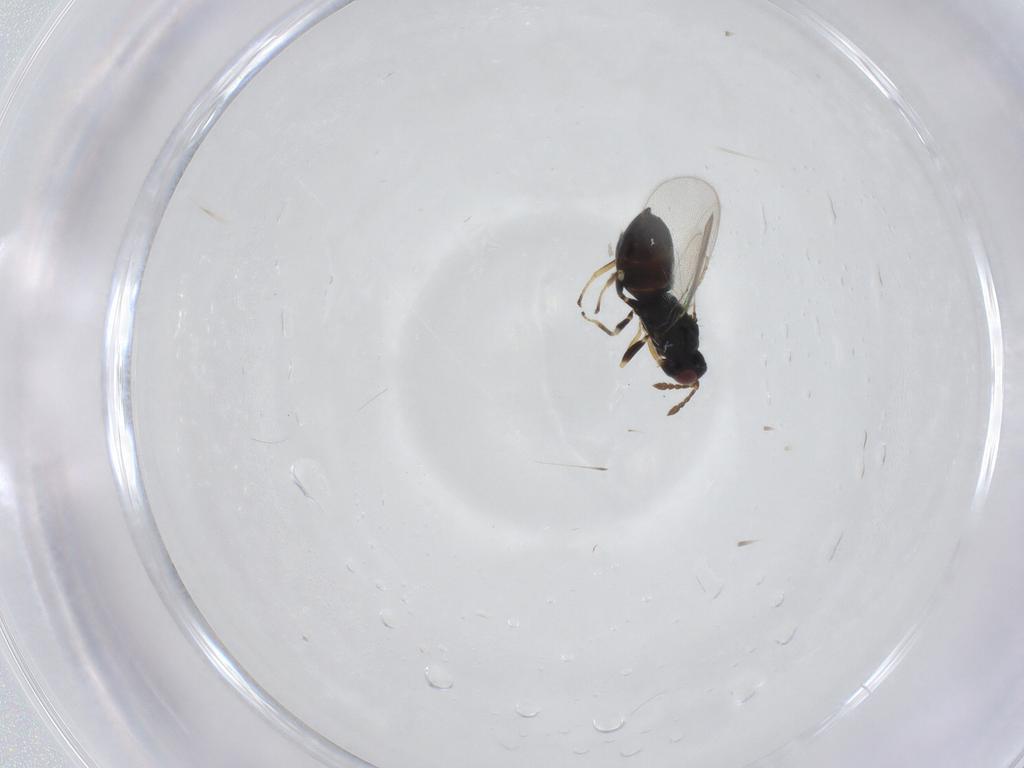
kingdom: Animalia
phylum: Arthropoda
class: Insecta
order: Hymenoptera
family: Eulophidae
